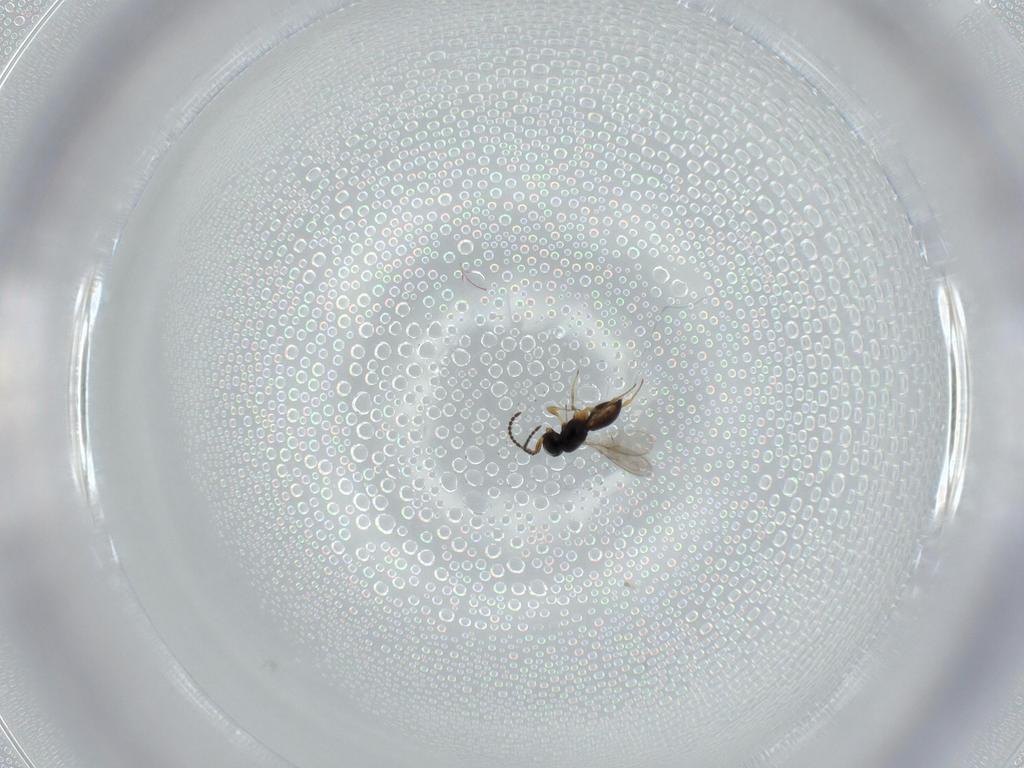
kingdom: Animalia
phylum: Arthropoda
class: Insecta
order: Hymenoptera
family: Scelionidae
